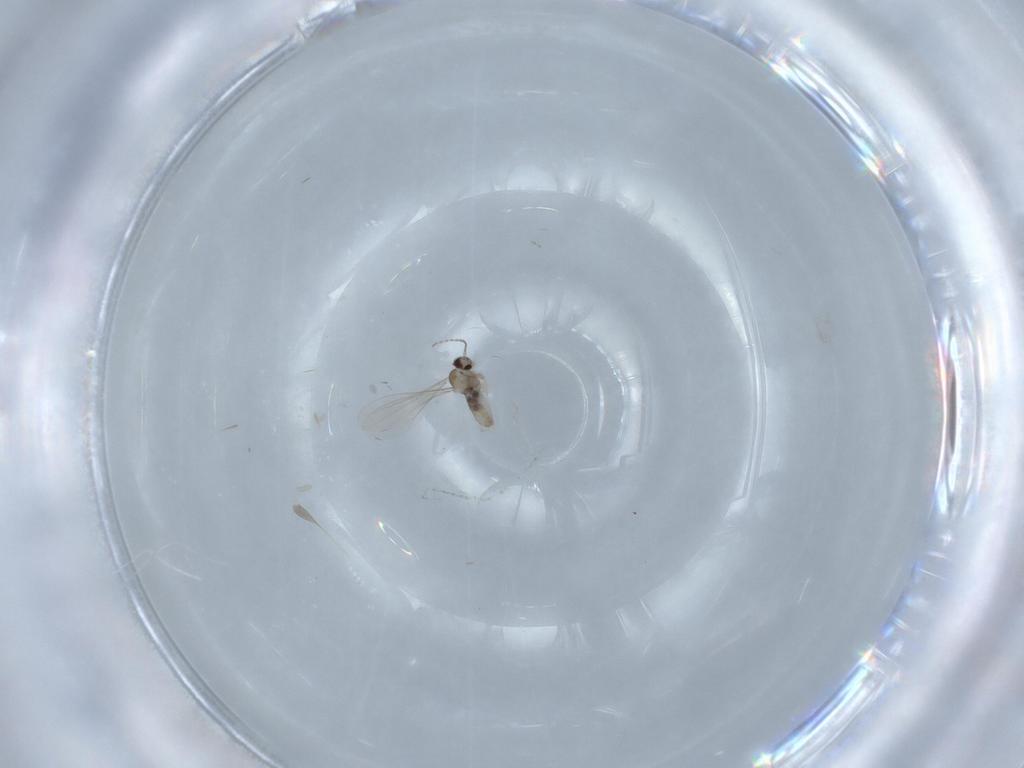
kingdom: Animalia
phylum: Arthropoda
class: Insecta
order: Diptera
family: Cecidomyiidae
